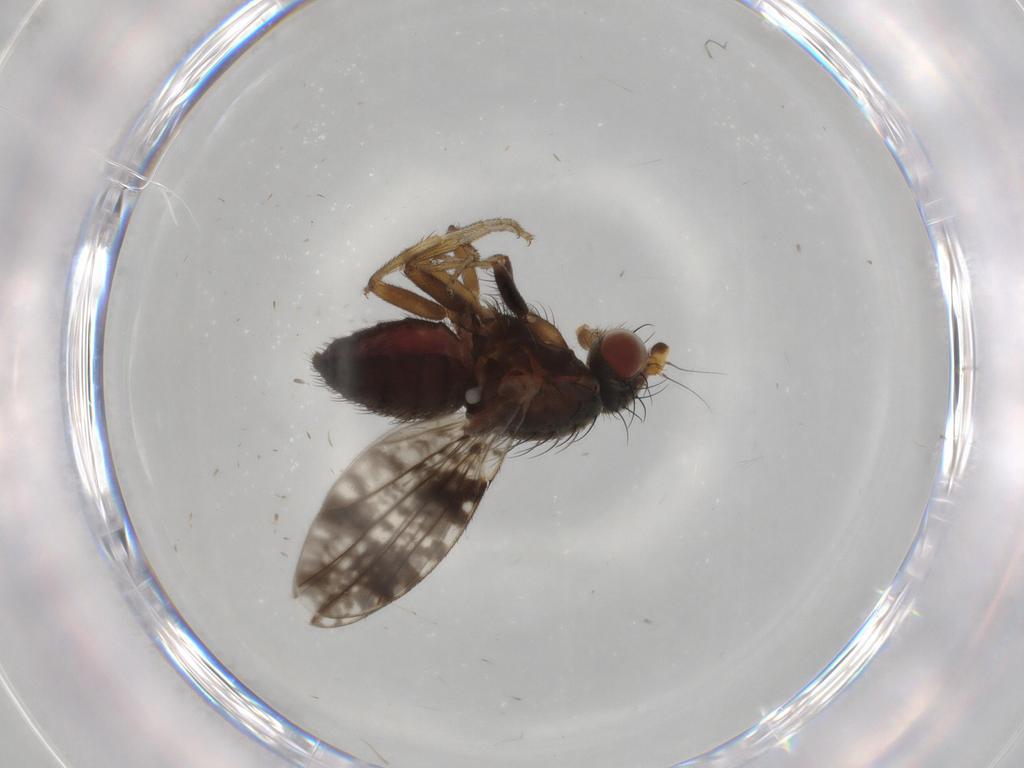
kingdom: Animalia
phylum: Arthropoda
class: Insecta
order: Diptera
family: Tephritidae
